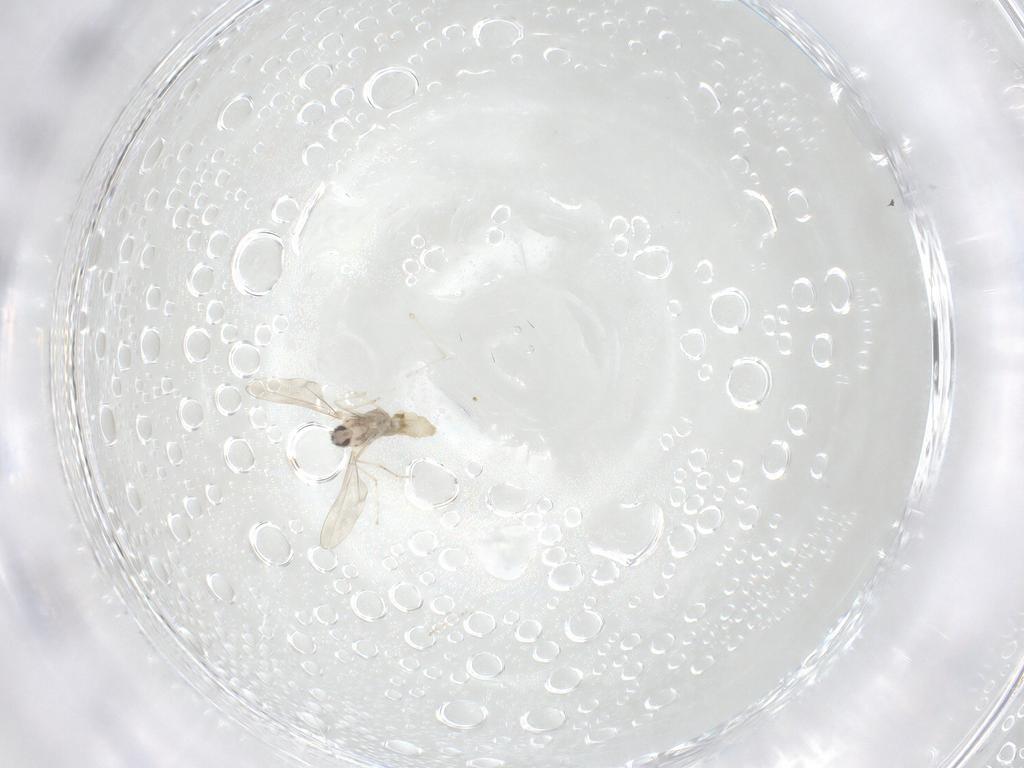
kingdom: Animalia
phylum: Arthropoda
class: Insecta
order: Diptera
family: Cecidomyiidae
